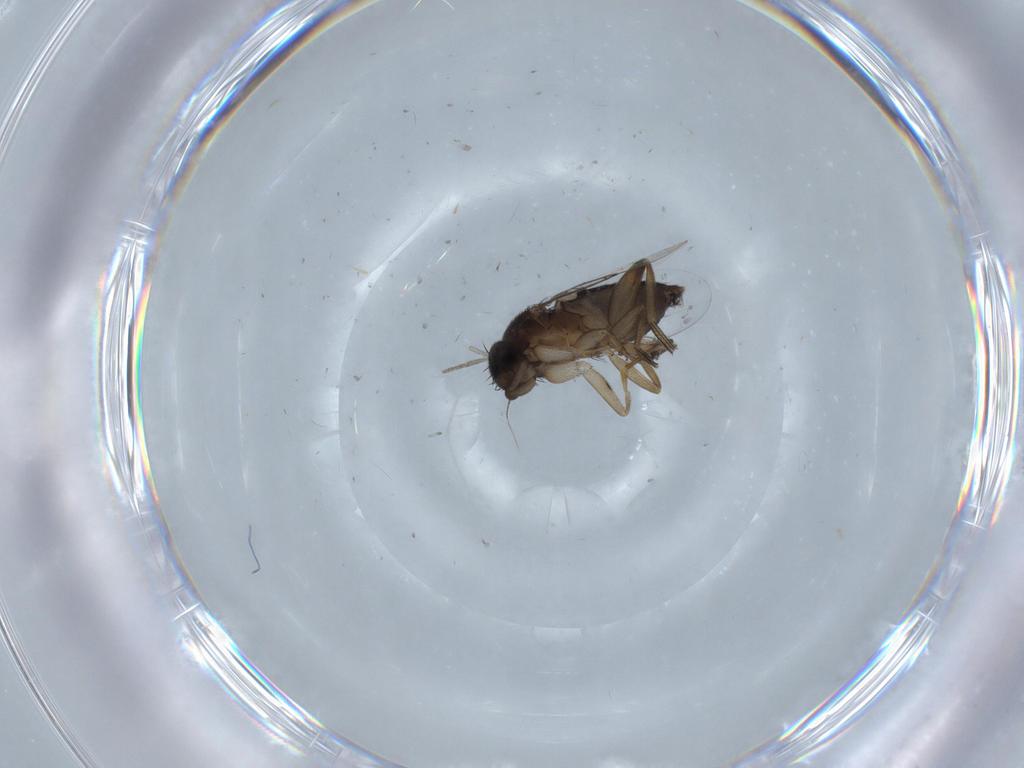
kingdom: Animalia
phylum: Arthropoda
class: Insecta
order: Diptera
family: Phoridae
